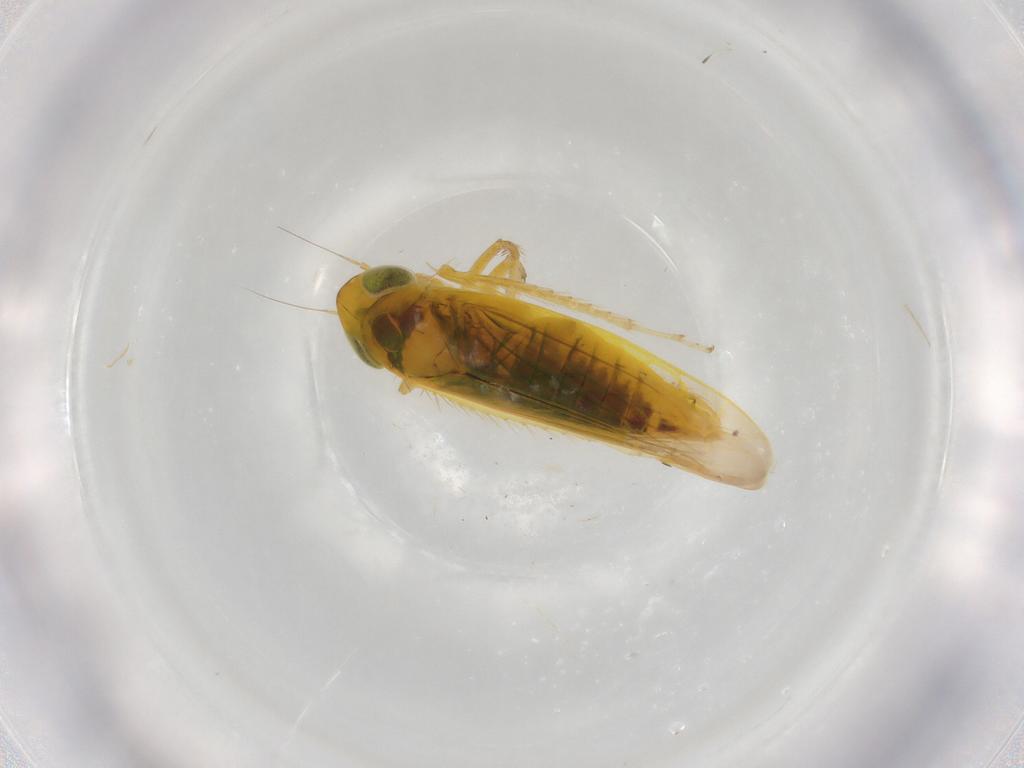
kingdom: Animalia
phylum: Arthropoda
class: Insecta
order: Hemiptera
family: Cicadellidae
